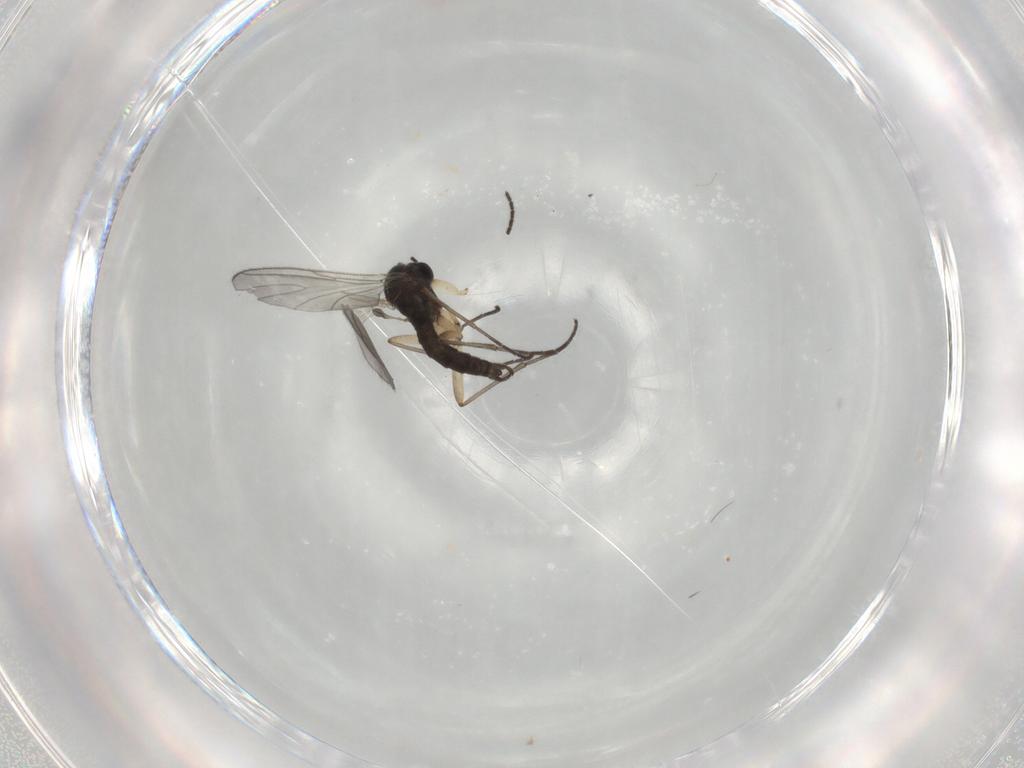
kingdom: Animalia
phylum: Arthropoda
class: Insecta
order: Diptera
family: Sciaridae
